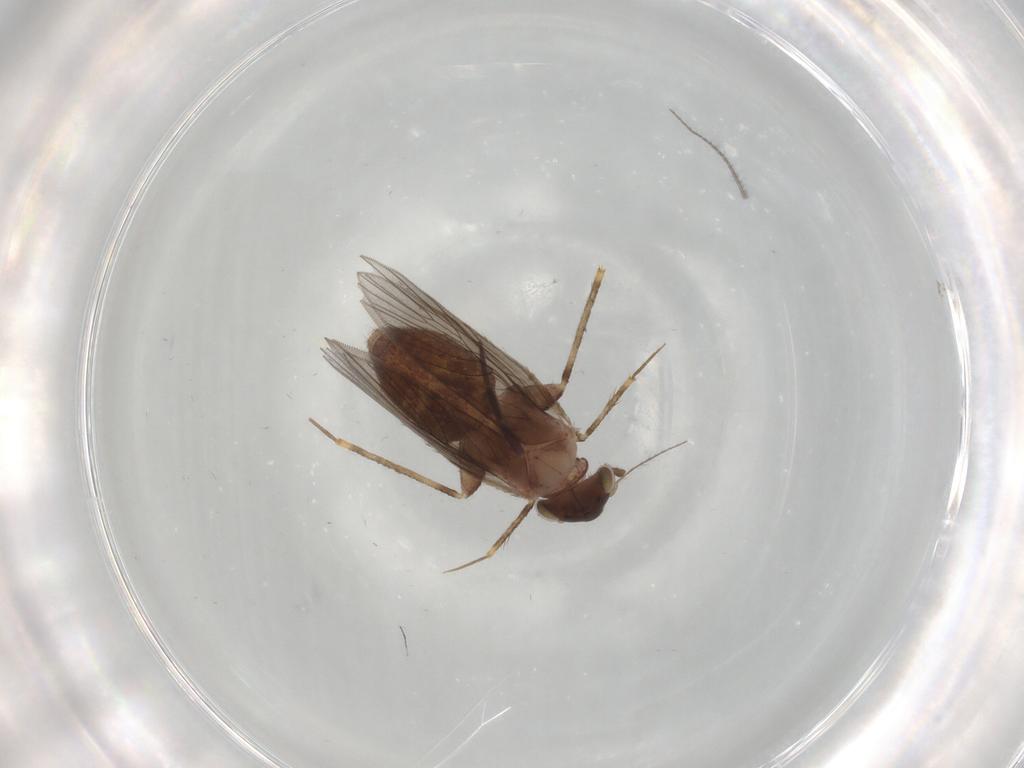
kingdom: Animalia
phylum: Arthropoda
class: Insecta
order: Psocodea
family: Lepidopsocidae
